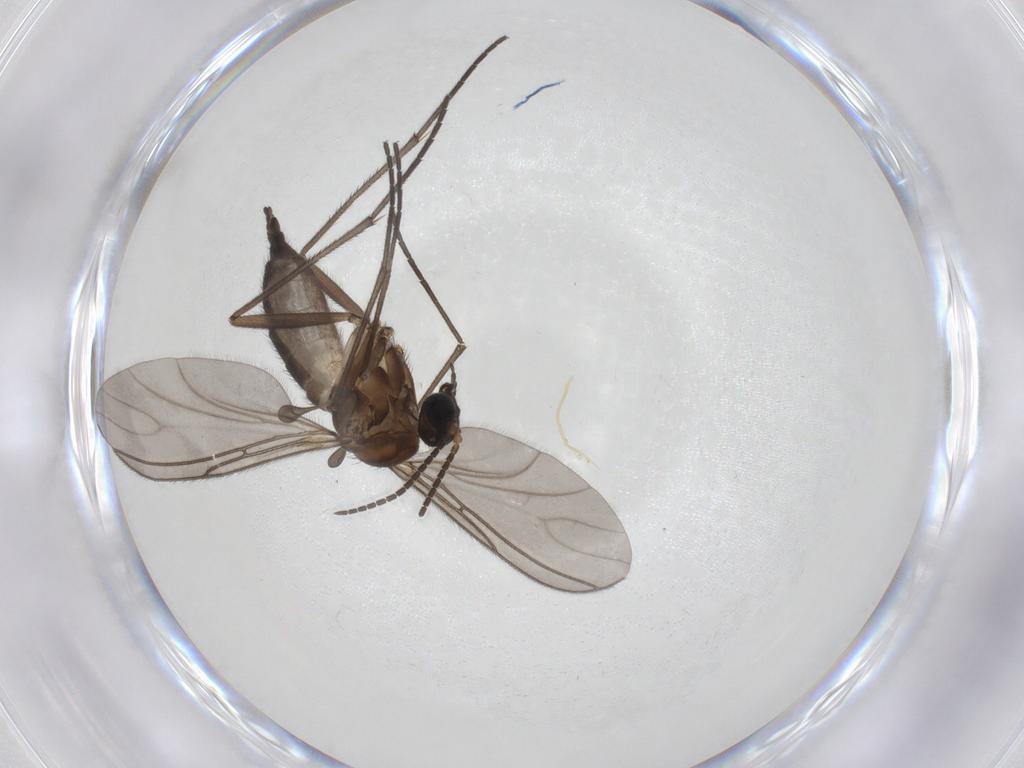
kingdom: Animalia
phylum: Arthropoda
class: Insecta
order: Diptera
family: Sciaridae
